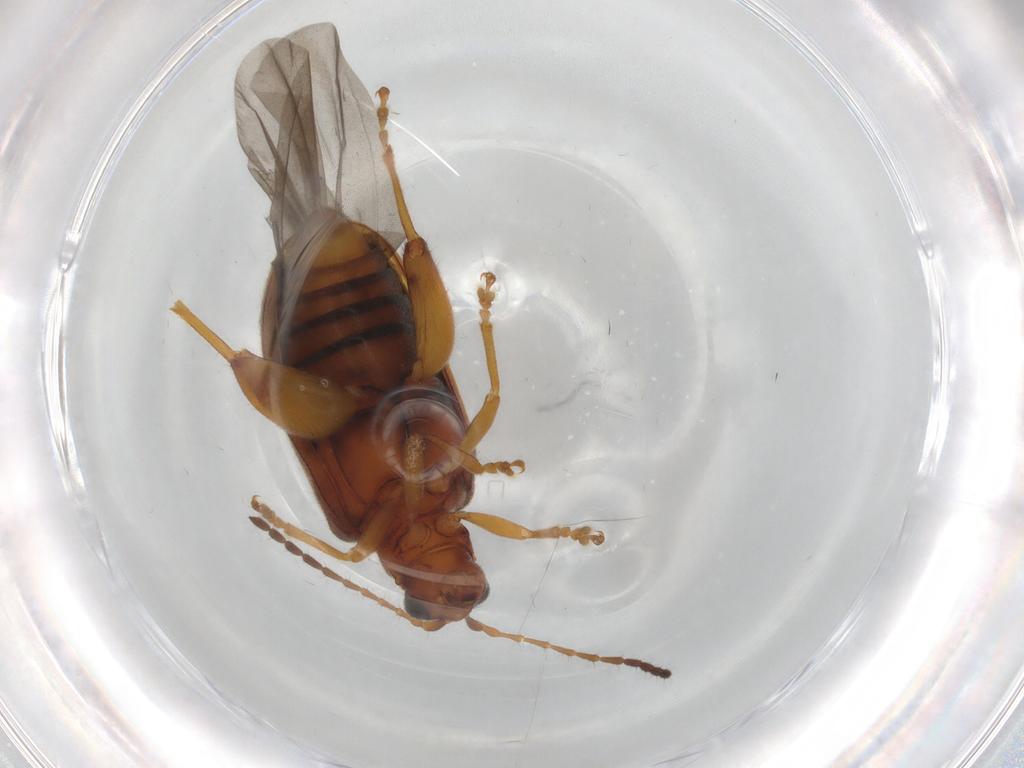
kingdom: Animalia
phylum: Arthropoda
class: Insecta
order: Coleoptera
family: Chrysomelidae
